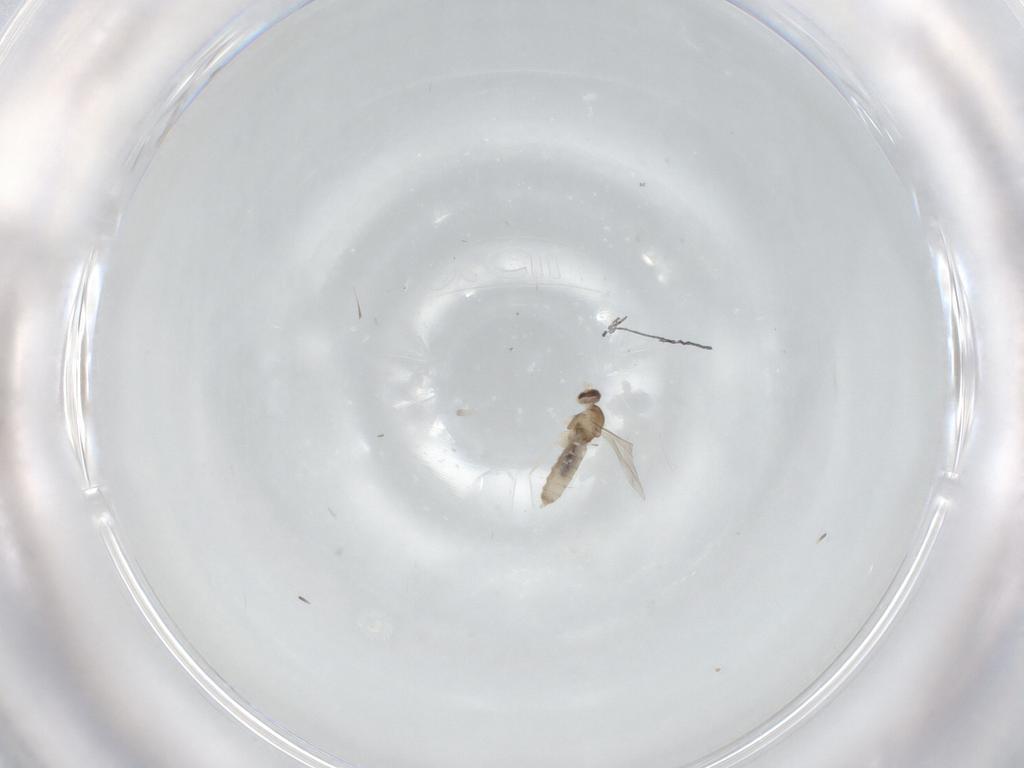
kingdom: Animalia
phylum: Arthropoda
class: Insecta
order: Diptera
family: Cecidomyiidae
